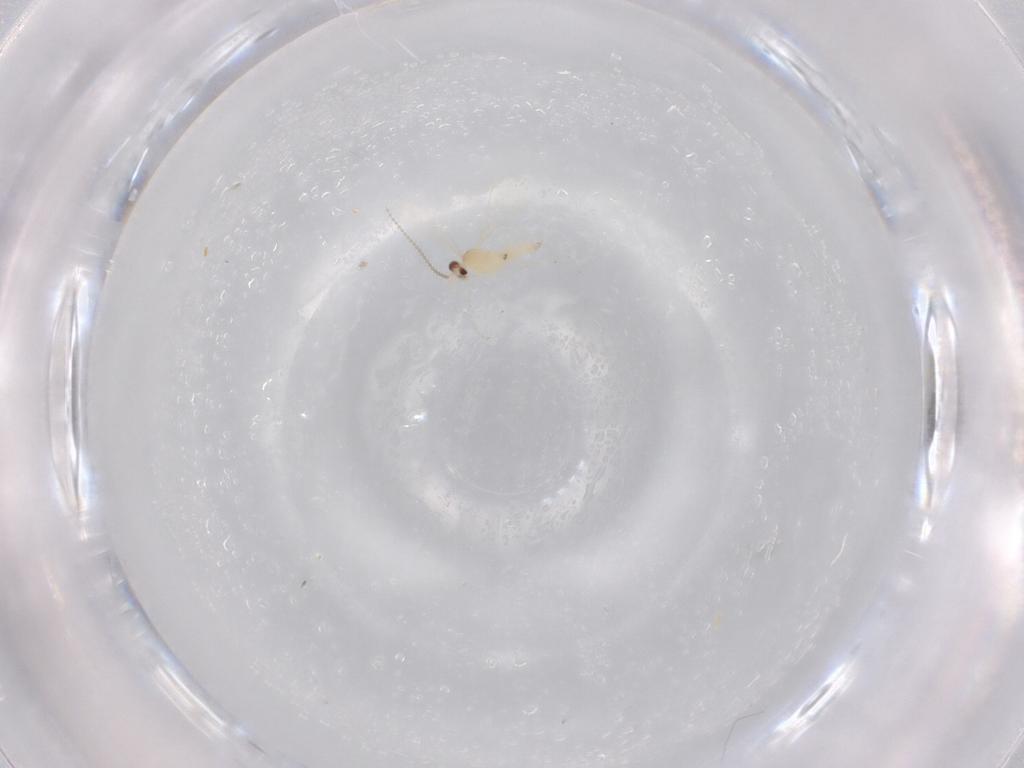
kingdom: Animalia
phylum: Arthropoda
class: Insecta
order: Diptera
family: Cecidomyiidae
